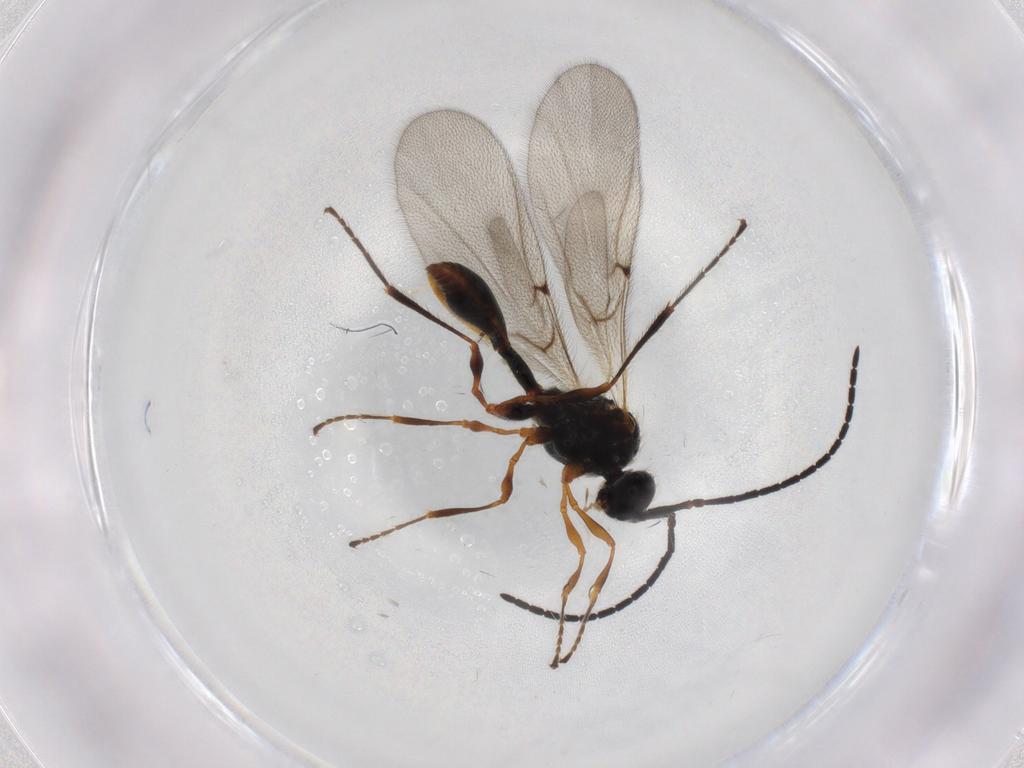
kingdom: Animalia
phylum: Arthropoda
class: Insecta
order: Hymenoptera
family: Diapriidae
